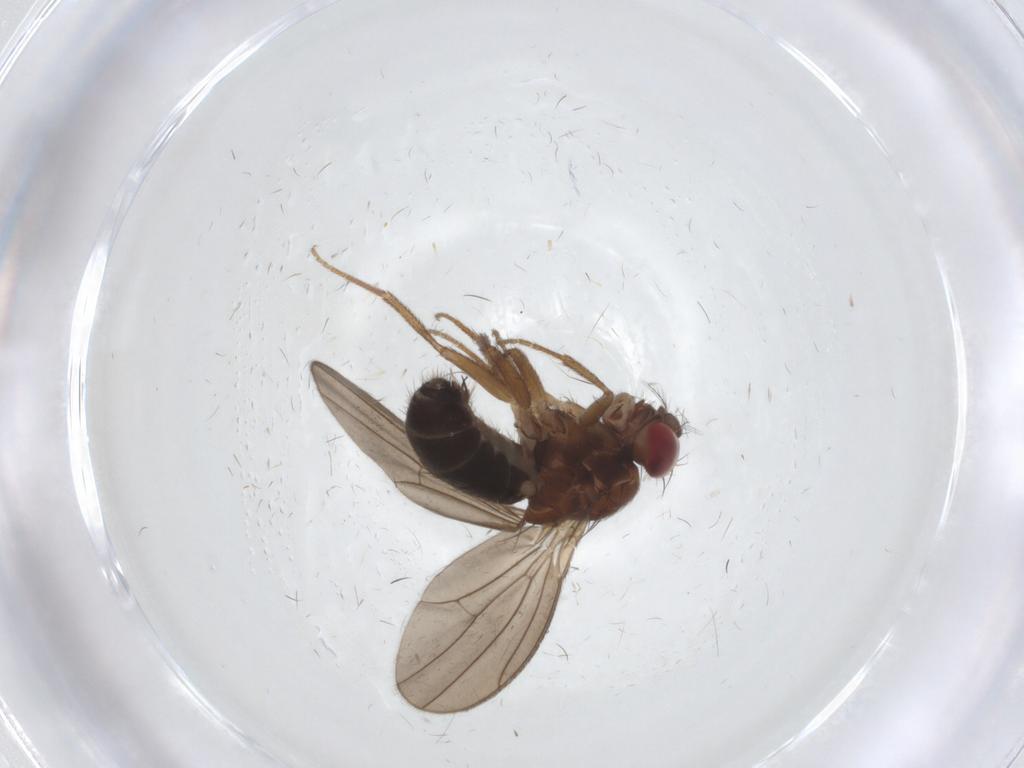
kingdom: Animalia
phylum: Arthropoda
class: Insecta
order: Diptera
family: Drosophilidae
